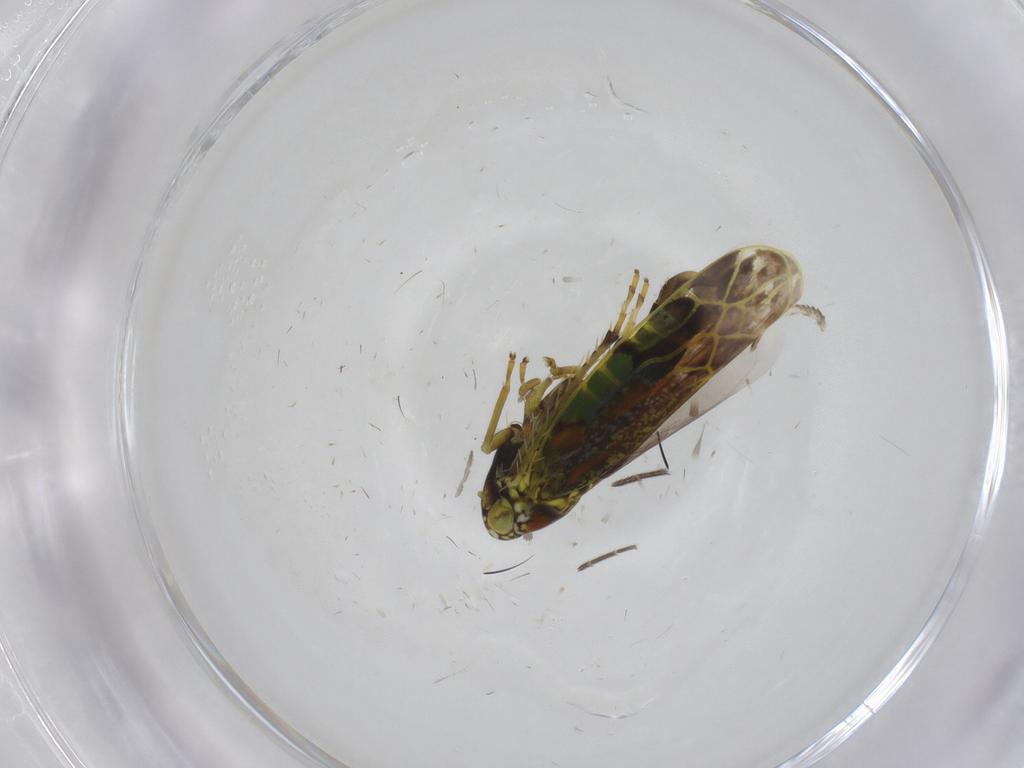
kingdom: Animalia
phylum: Arthropoda
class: Insecta
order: Hemiptera
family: Cicadellidae
